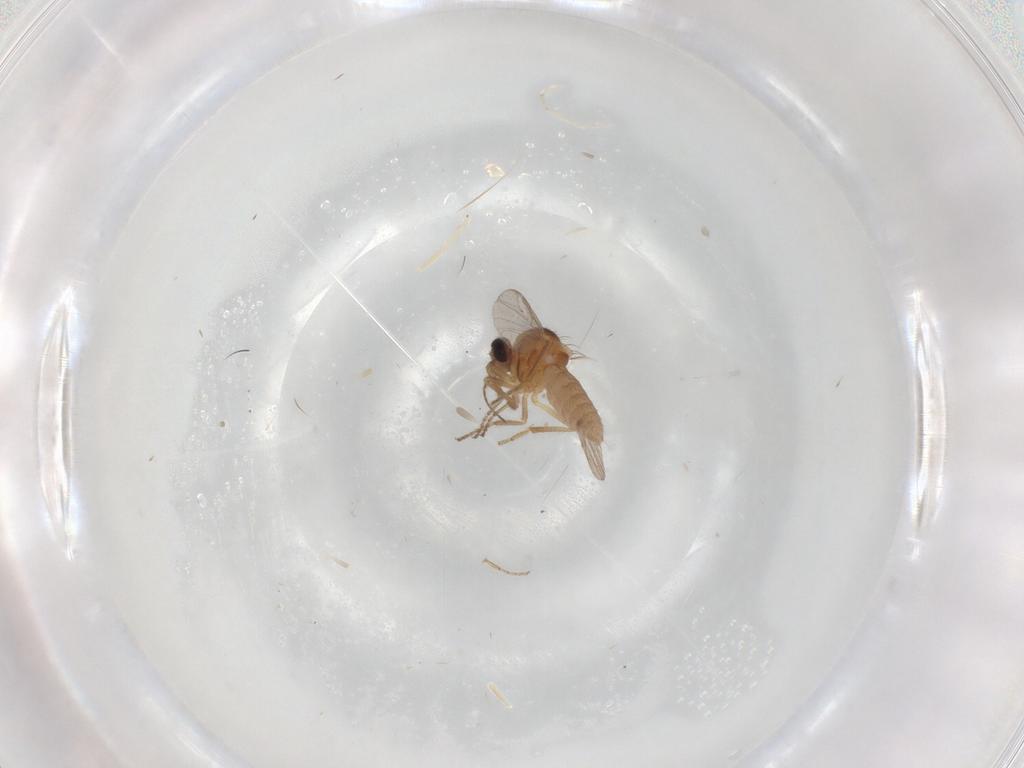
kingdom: Animalia
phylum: Arthropoda
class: Insecta
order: Diptera
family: Ceratopogonidae
